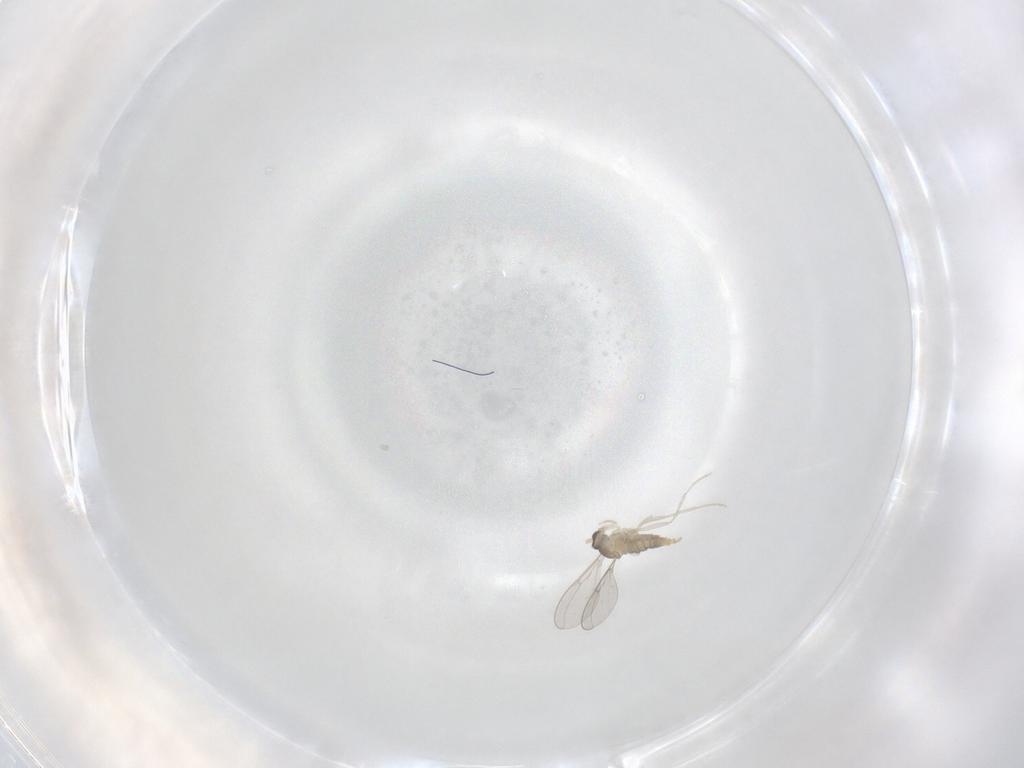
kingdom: Animalia
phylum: Arthropoda
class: Insecta
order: Diptera
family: Cecidomyiidae
